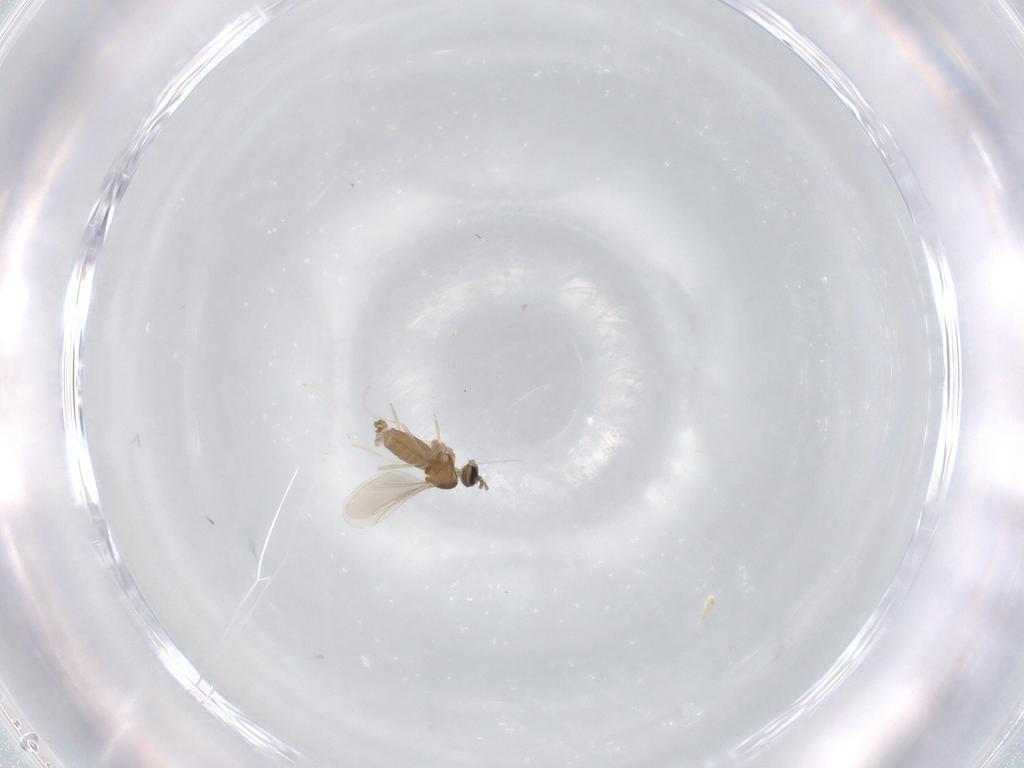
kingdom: Animalia
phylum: Arthropoda
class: Insecta
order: Diptera
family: Cecidomyiidae
